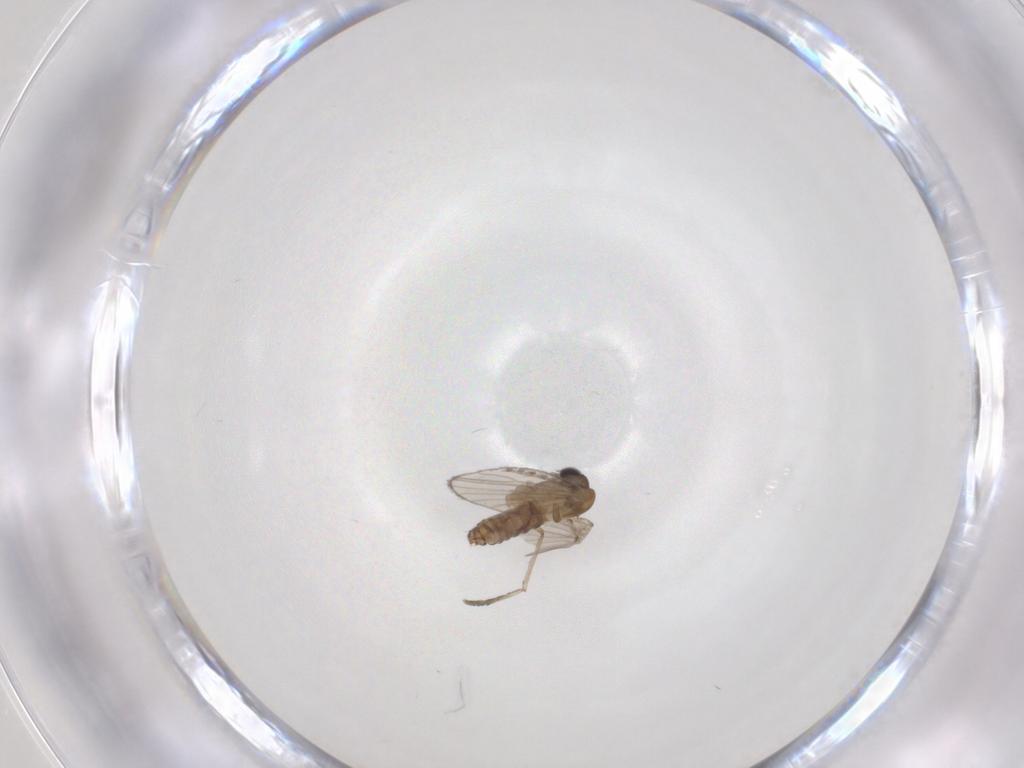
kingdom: Animalia
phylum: Arthropoda
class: Insecta
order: Diptera
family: Psychodidae
